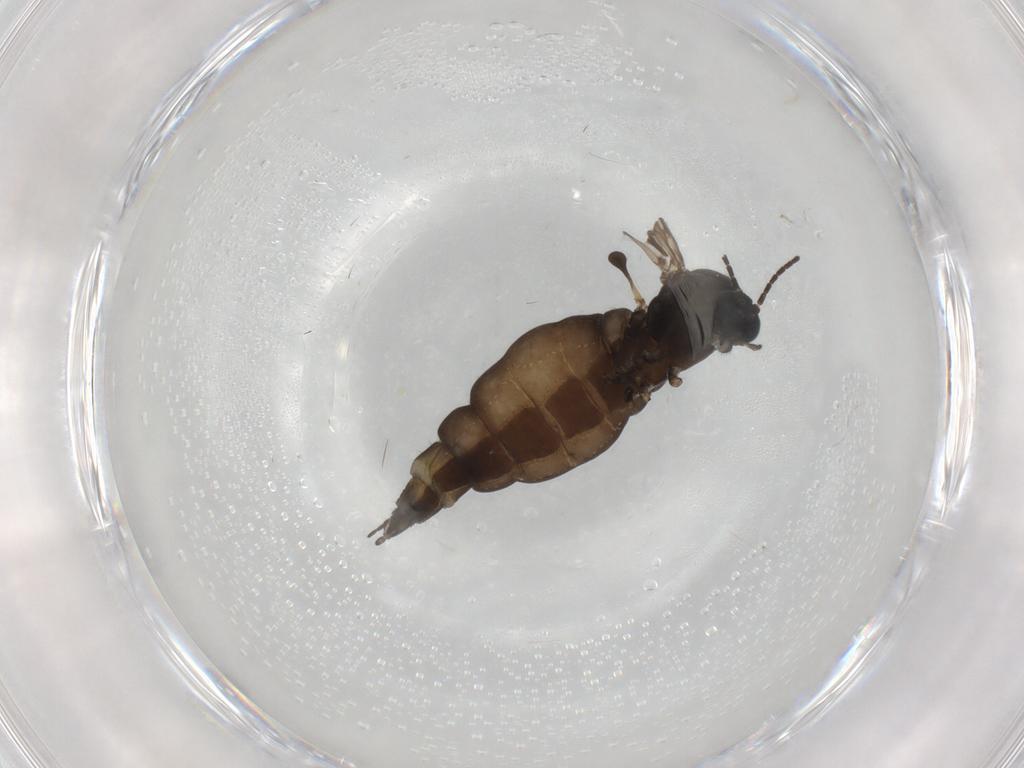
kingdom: Animalia
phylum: Arthropoda
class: Insecta
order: Diptera
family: Sciaridae
